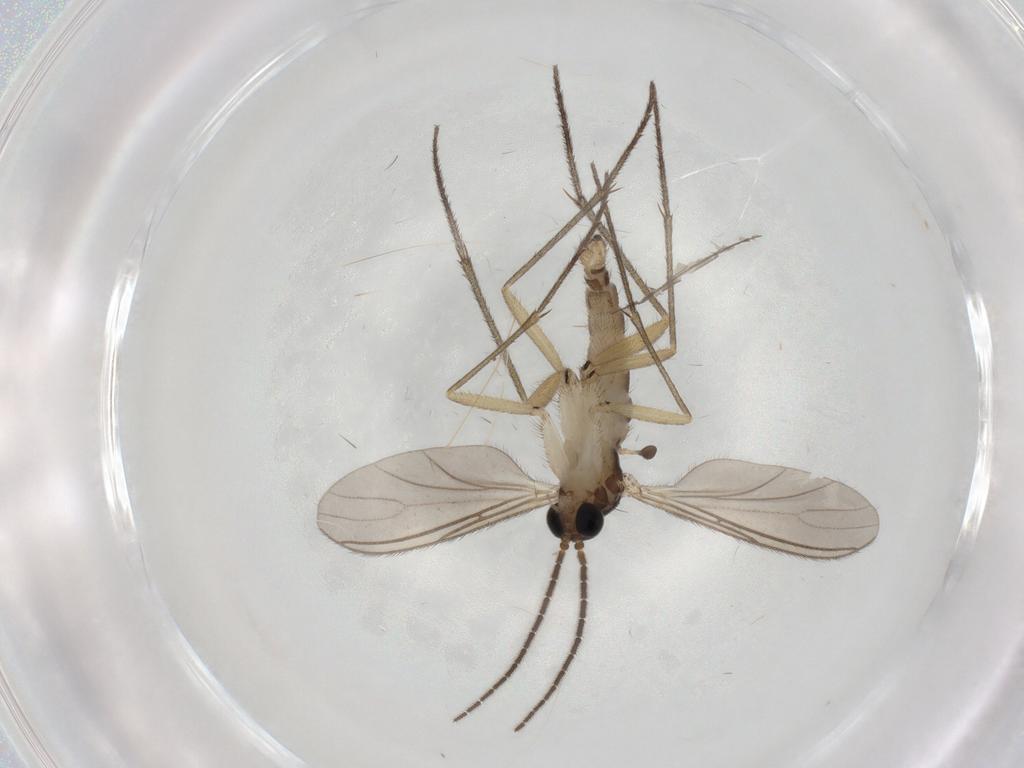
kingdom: Animalia
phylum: Arthropoda
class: Insecta
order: Diptera
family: Sciaridae
